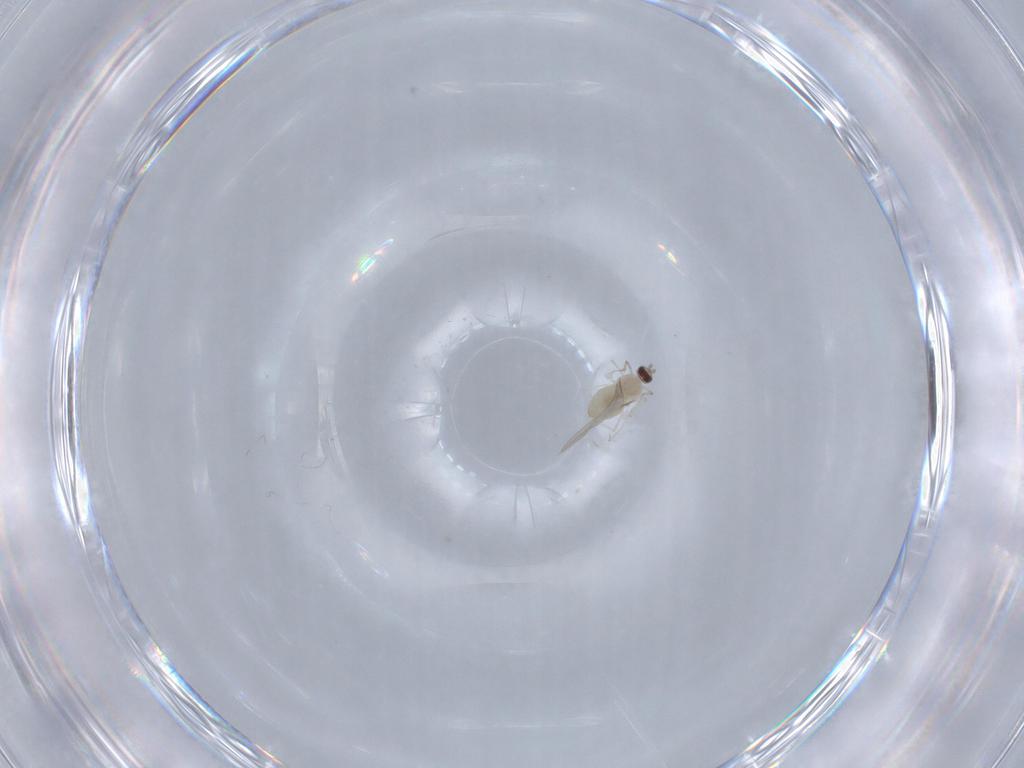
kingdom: Animalia
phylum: Arthropoda
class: Insecta
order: Diptera
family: Cecidomyiidae
